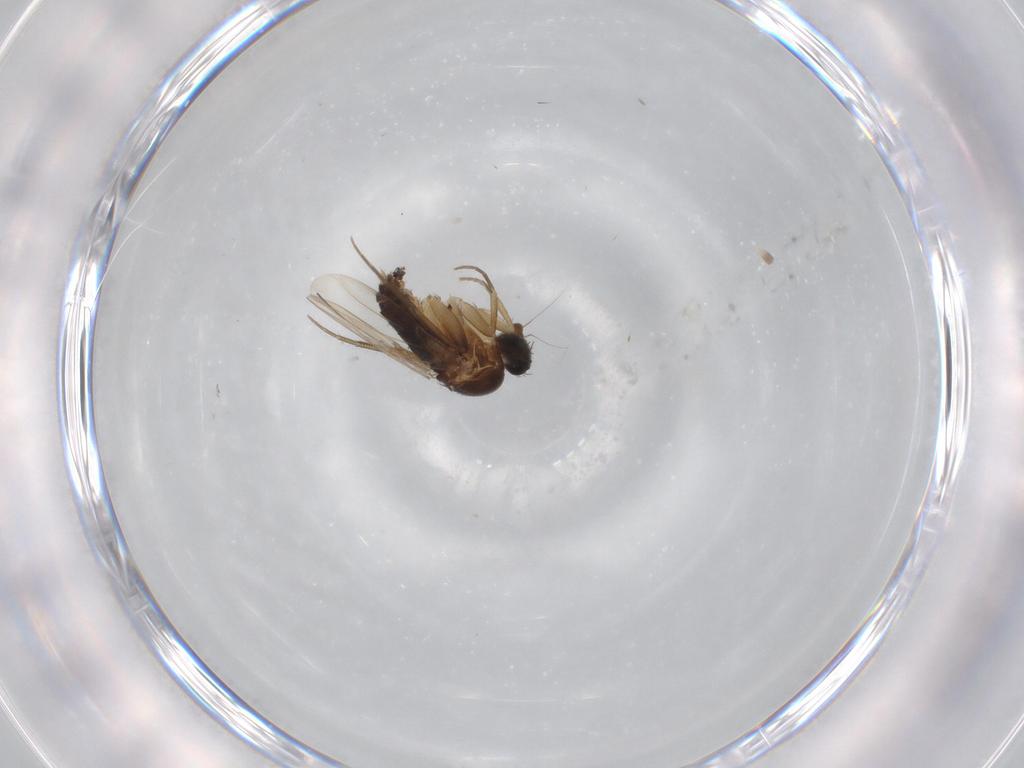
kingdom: Animalia
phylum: Arthropoda
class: Insecta
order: Diptera
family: Phoridae
